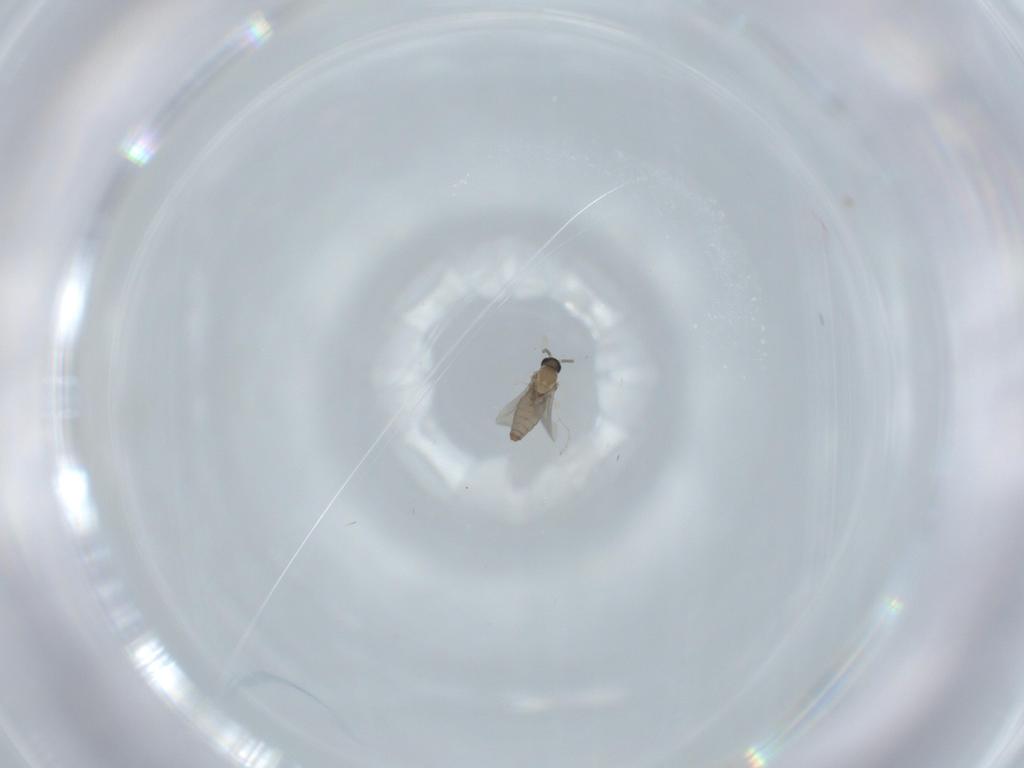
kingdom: Animalia
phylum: Arthropoda
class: Insecta
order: Diptera
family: Cecidomyiidae
